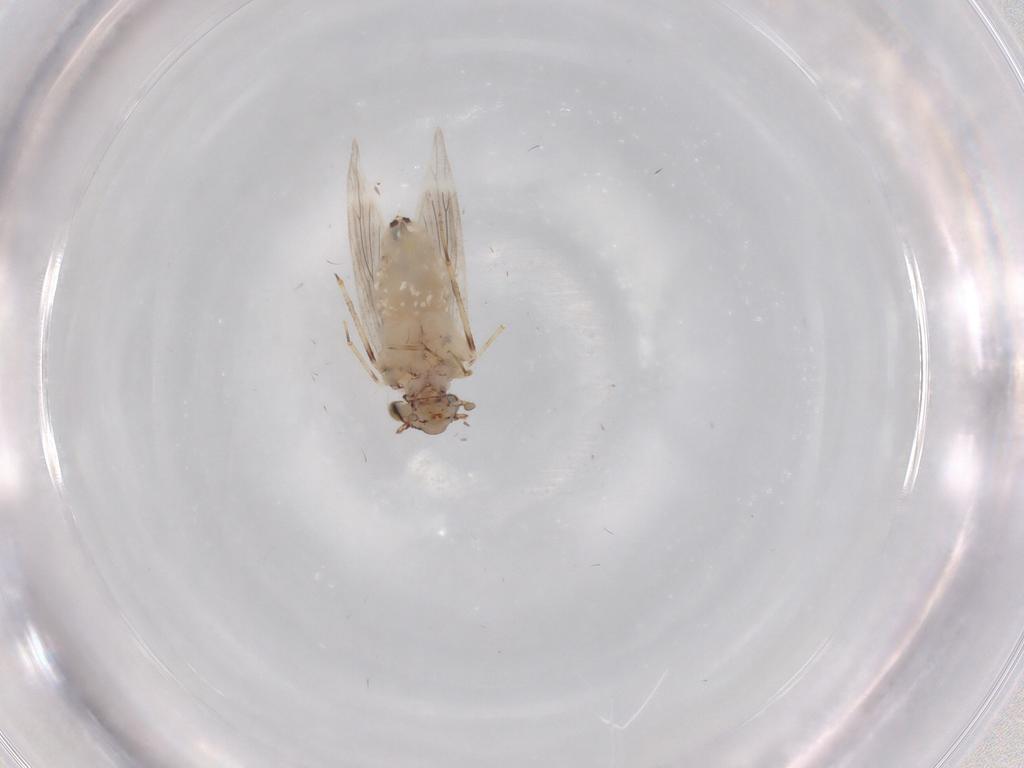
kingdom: Animalia
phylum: Arthropoda
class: Insecta
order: Psocodea
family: Lepidopsocidae
